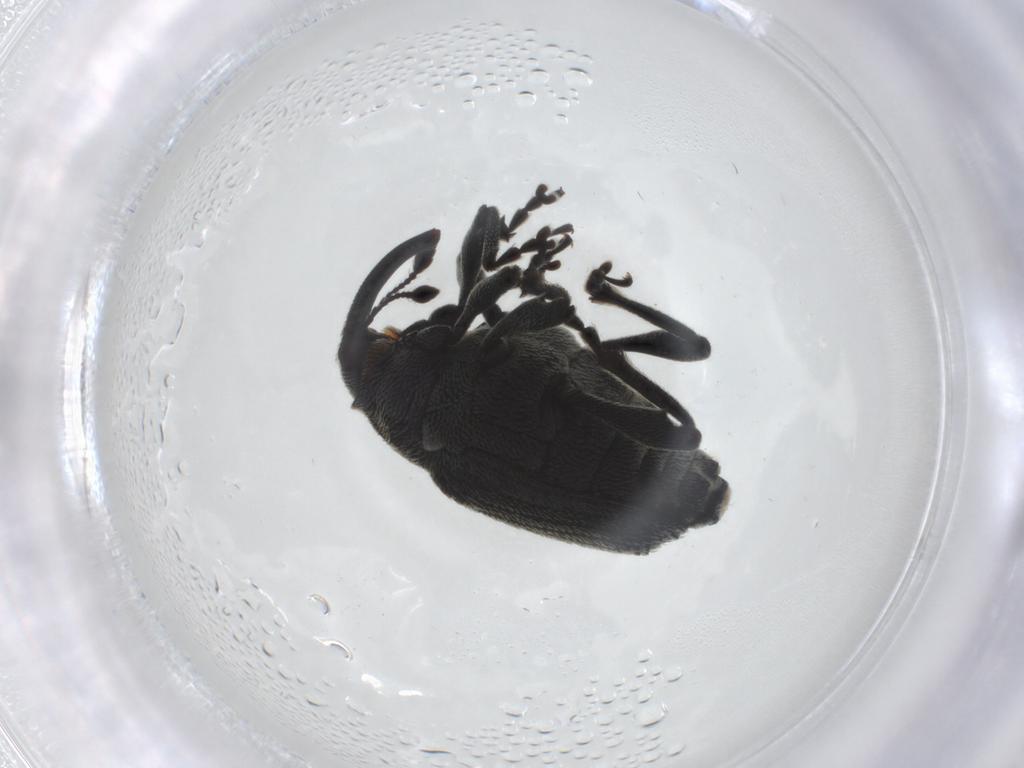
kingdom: Animalia
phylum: Arthropoda
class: Insecta
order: Coleoptera
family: Curculionidae
